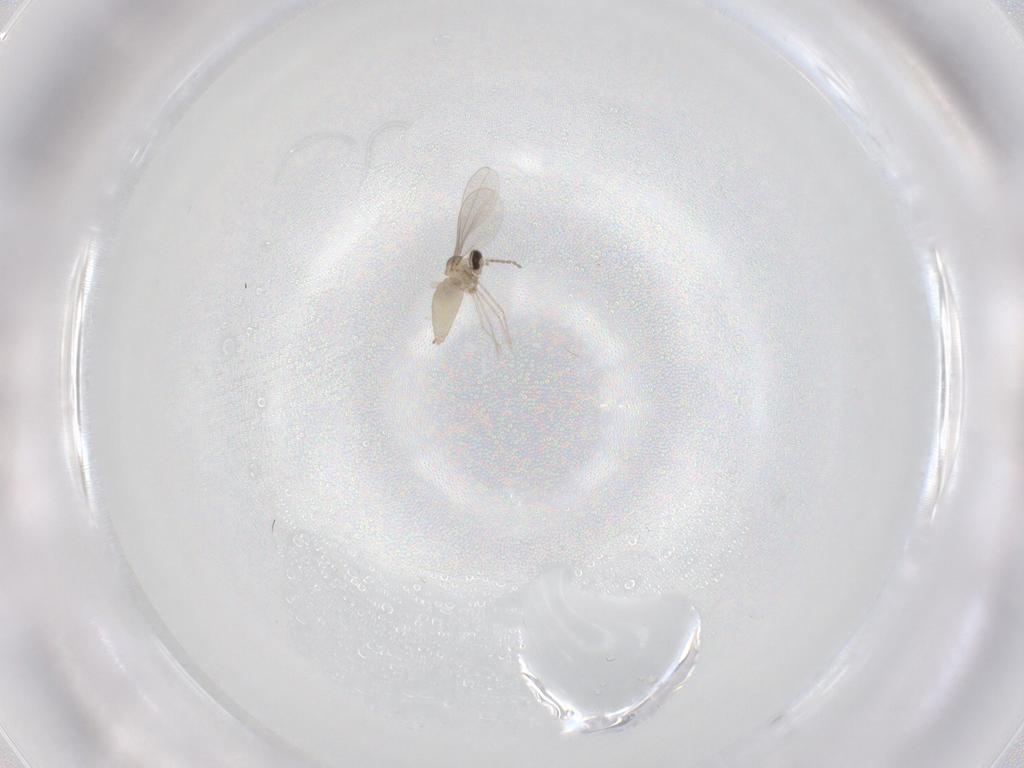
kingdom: Animalia
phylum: Arthropoda
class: Insecta
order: Diptera
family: Cecidomyiidae
